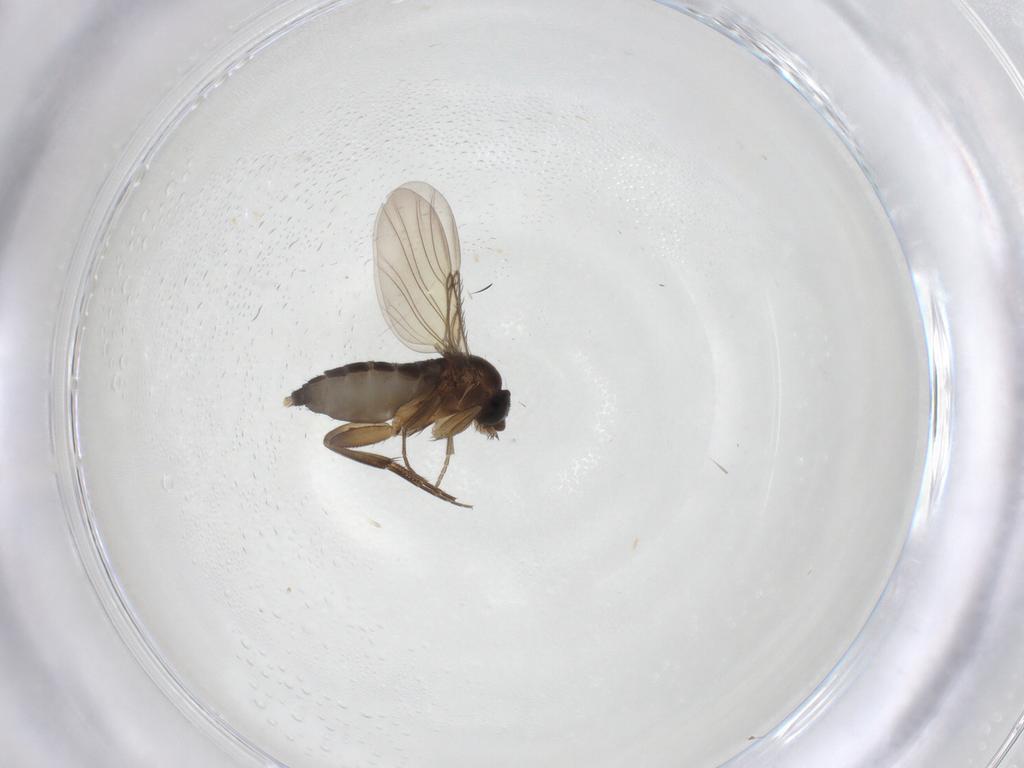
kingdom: Animalia
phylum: Arthropoda
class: Insecta
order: Diptera
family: Phoridae
